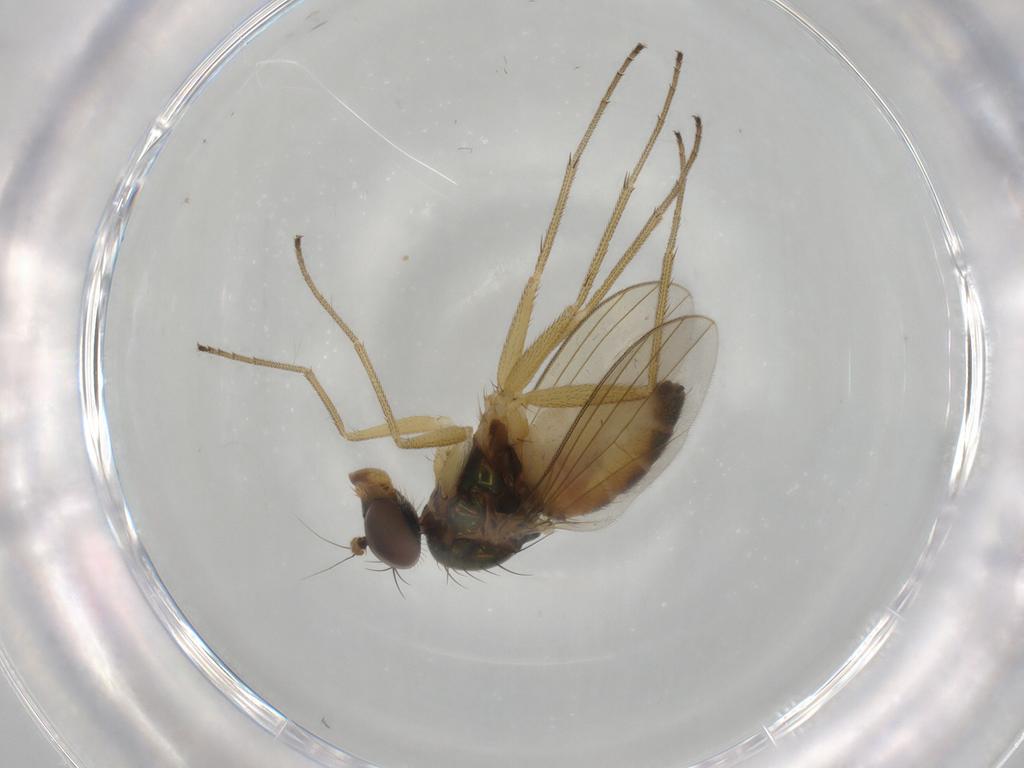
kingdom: Animalia
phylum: Arthropoda
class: Insecta
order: Diptera
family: Dolichopodidae
